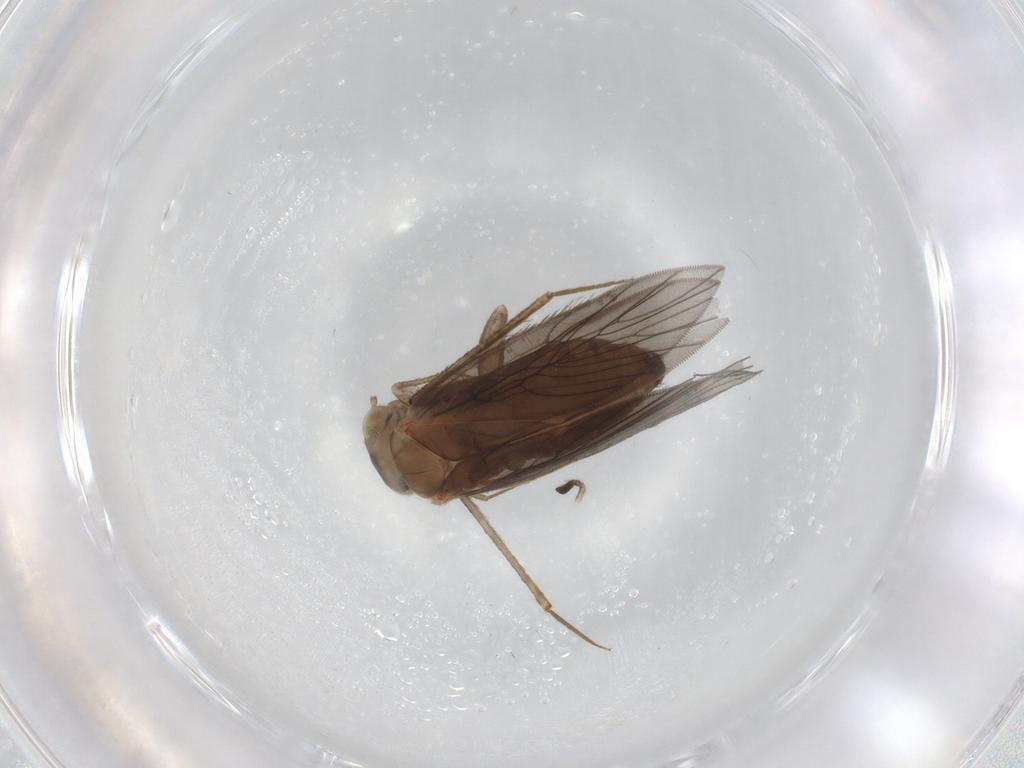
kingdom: Animalia
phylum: Arthropoda
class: Insecta
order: Psocodea
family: Lepidopsocidae
